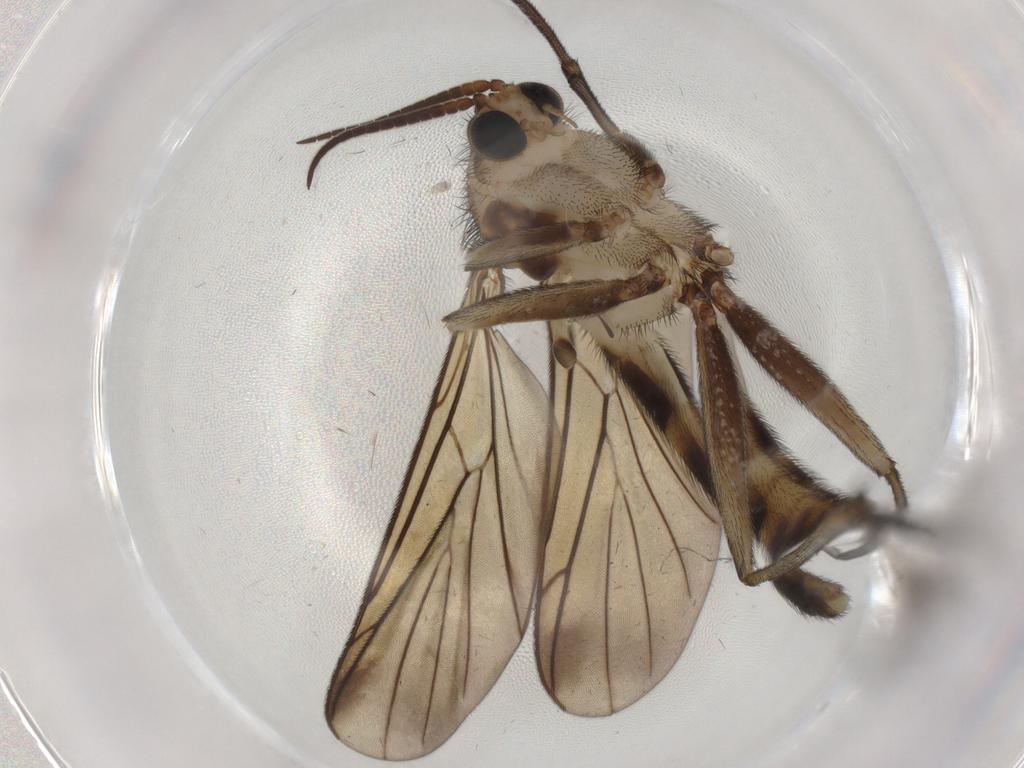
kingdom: Animalia
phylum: Arthropoda
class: Insecta
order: Diptera
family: Phoridae
